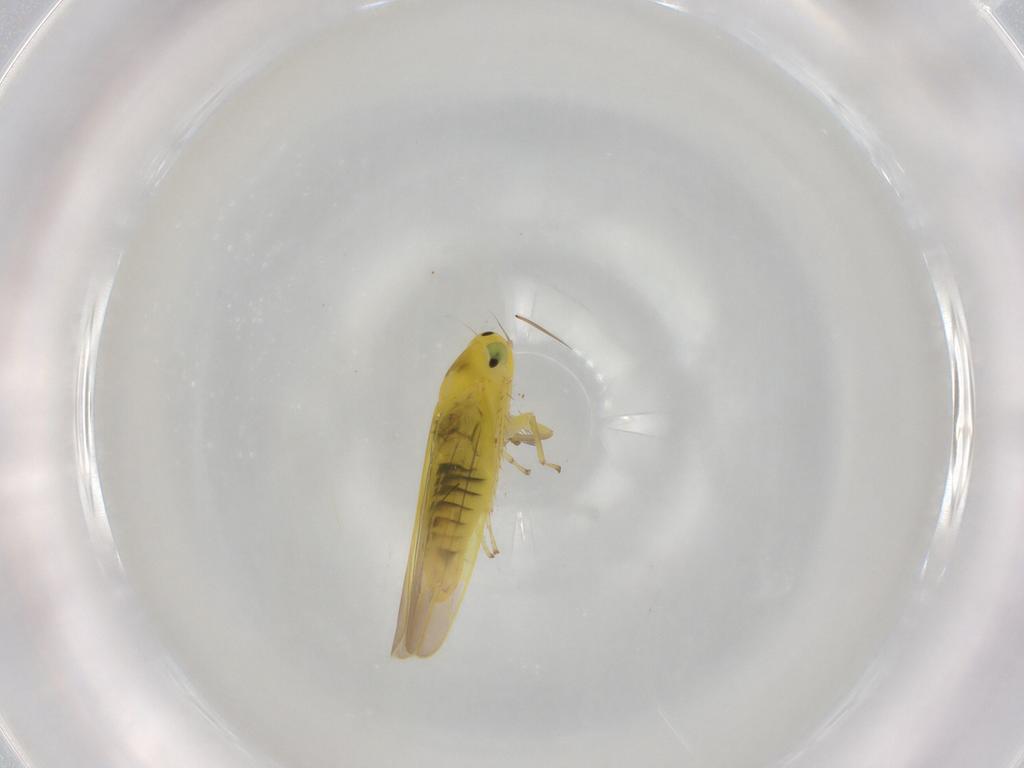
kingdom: Animalia
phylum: Arthropoda
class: Insecta
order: Hemiptera
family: Cicadellidae
